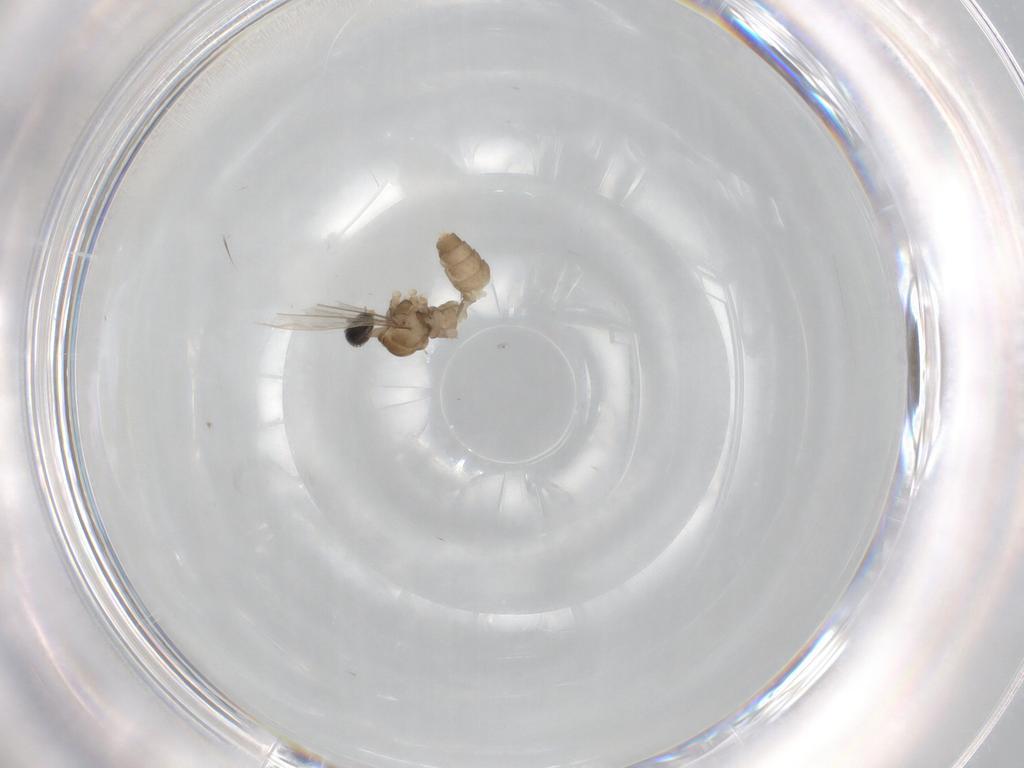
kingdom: Animalia
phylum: Arthropoda
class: Insecta
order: Diptera
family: Cecidomyiidae
